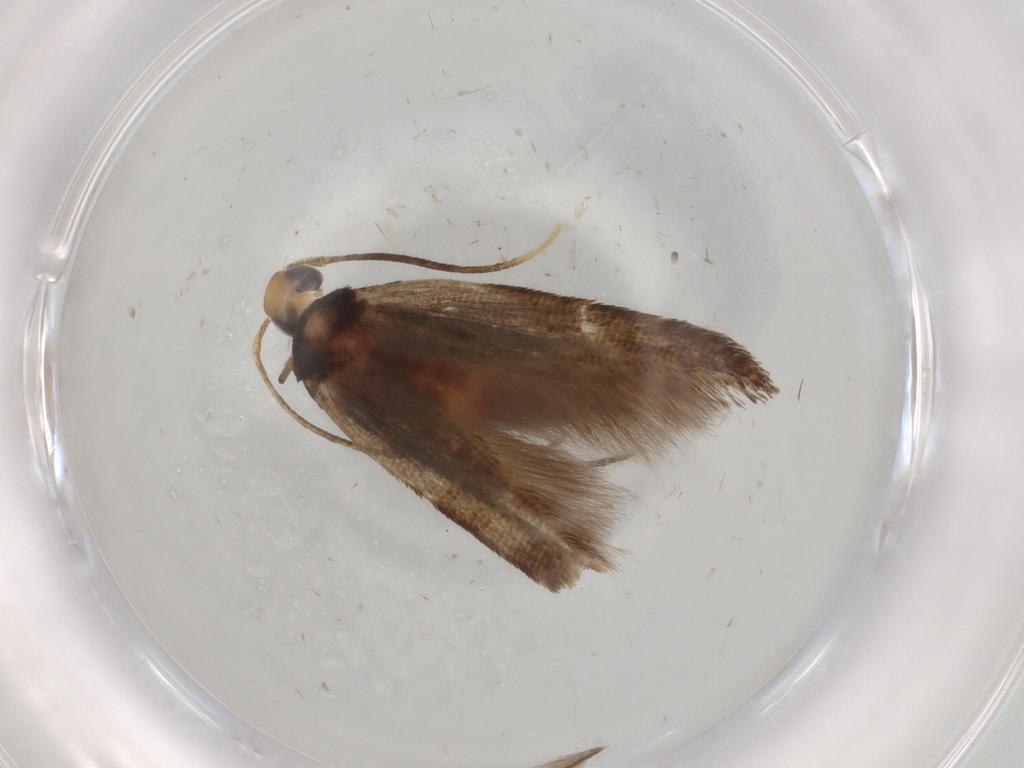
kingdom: Animalia
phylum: Arthropoda
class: Insecta
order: Lepidoptera
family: Cosmopterigidae
